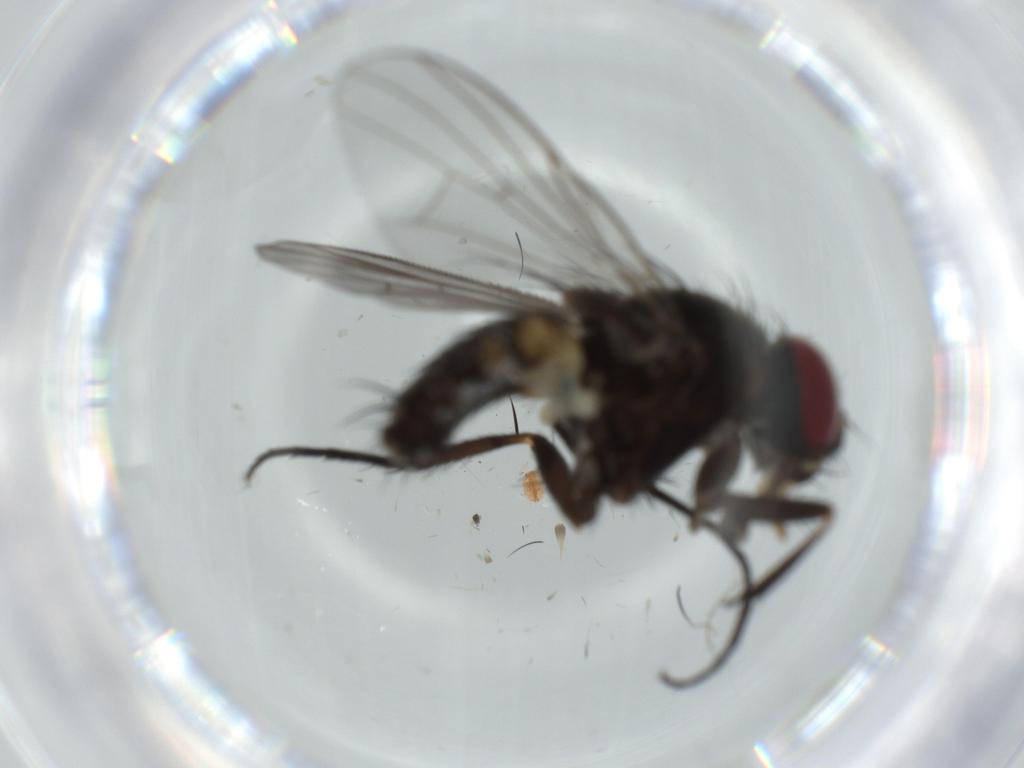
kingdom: Animalia
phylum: Arthropoda
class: Insecta
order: Diptera
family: Fannia
